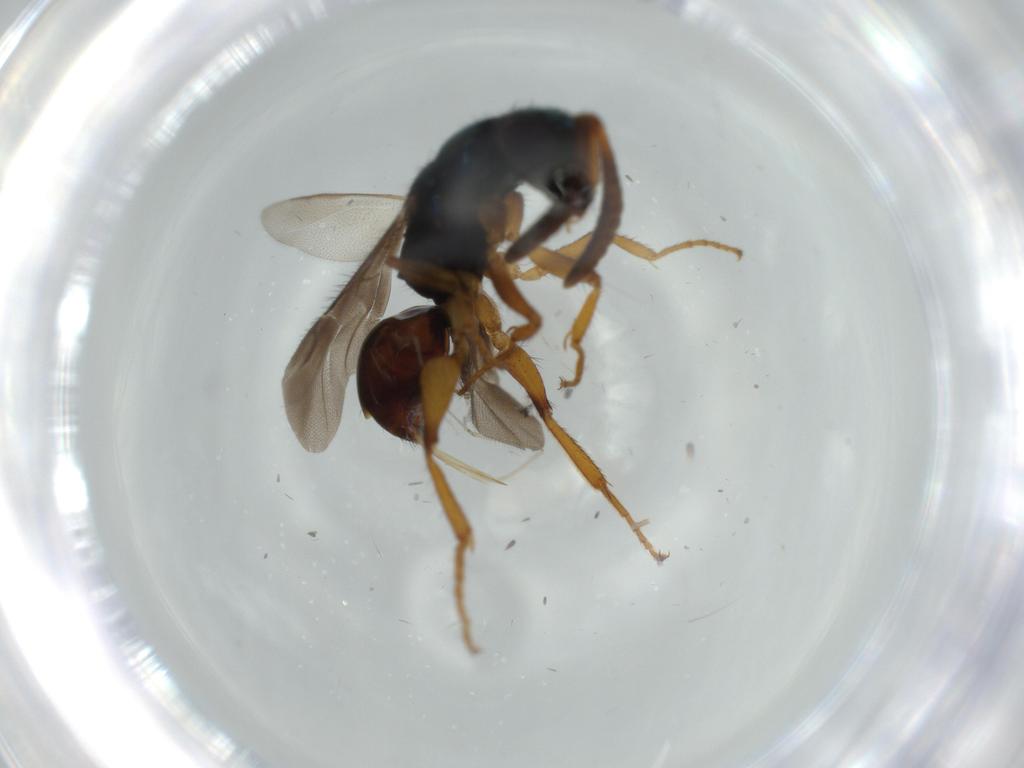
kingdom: Animalia
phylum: Arthropoda
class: Insecta
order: Hymenoptera
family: Chrysididae
